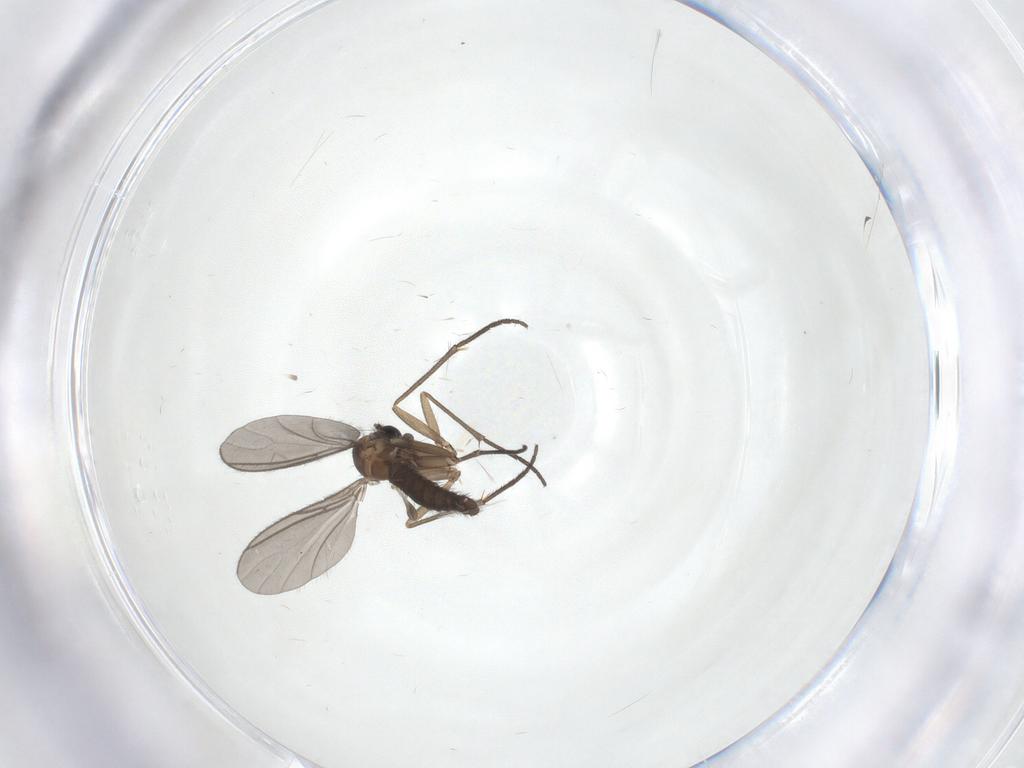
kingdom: Animalia
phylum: Arthropoda
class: Insecta
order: Diptera
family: Sciaridae
